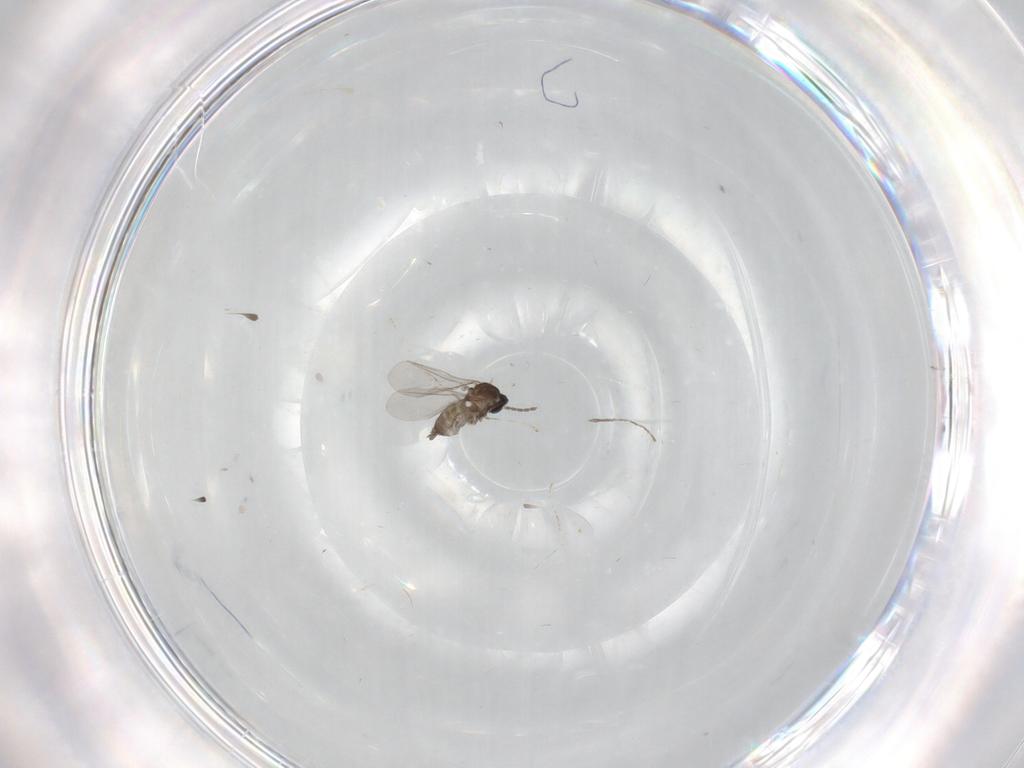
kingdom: Animalia
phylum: Arthropoda
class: Insecta
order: Diptera
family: Cecidomyiidae
